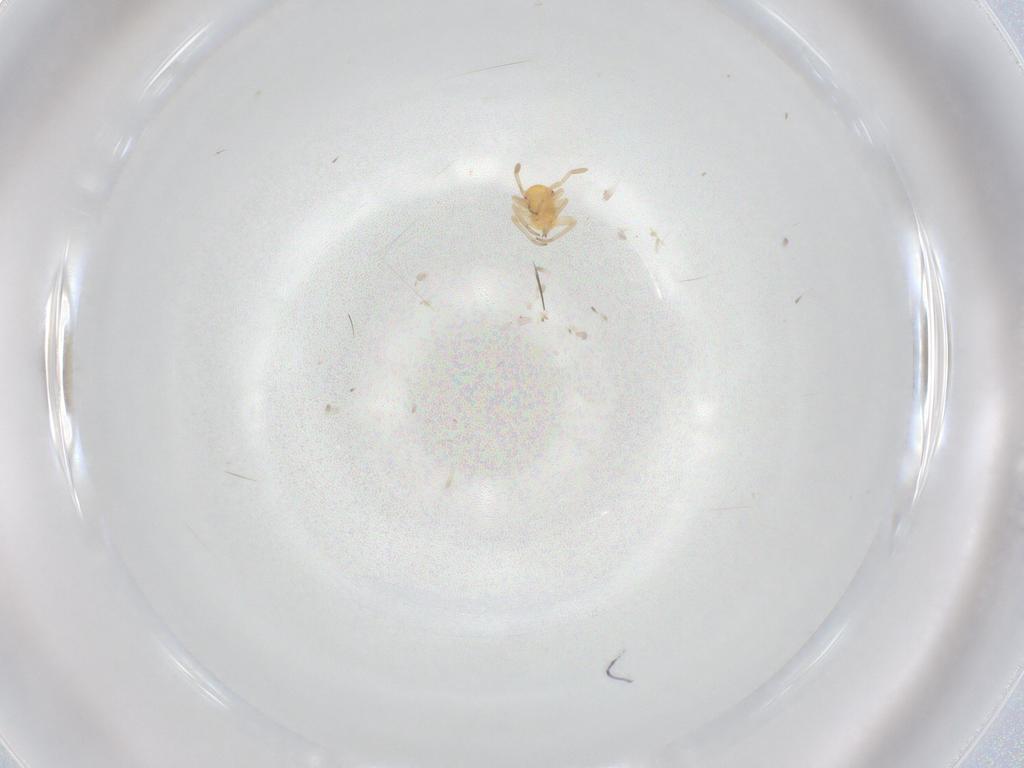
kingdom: Animalia
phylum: Arthropoda
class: Insecta
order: Hemiptera
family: Miridae
